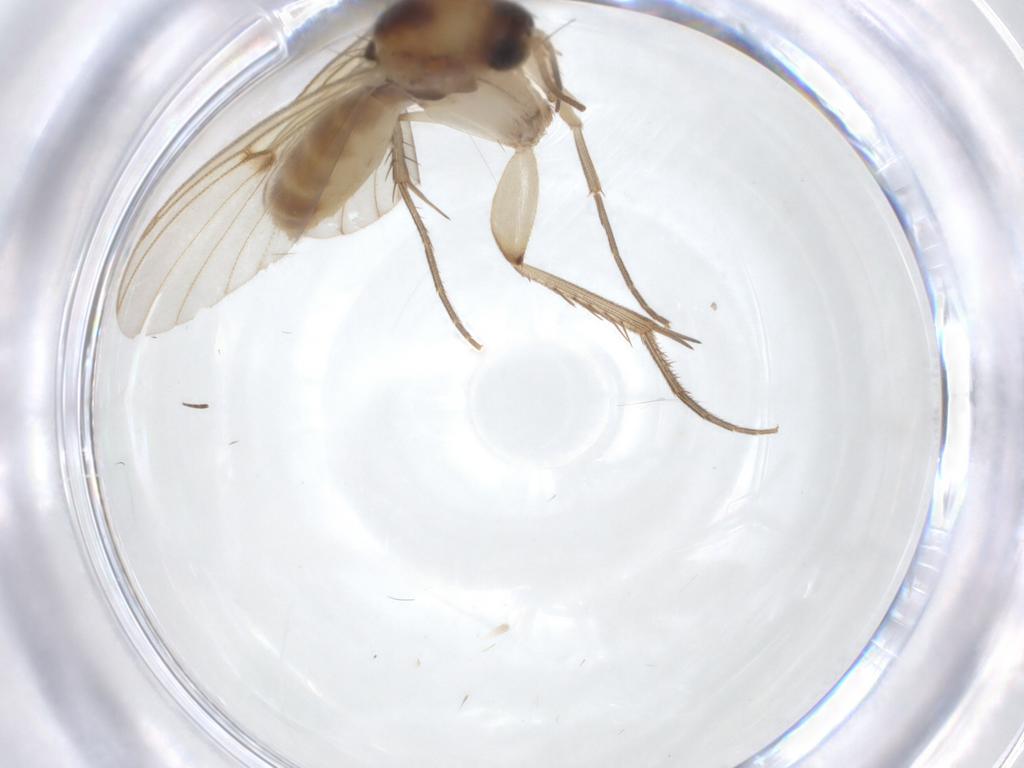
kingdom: Animalia
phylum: Arthropoda
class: Insecta
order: Diptera
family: Mycetophilidae
